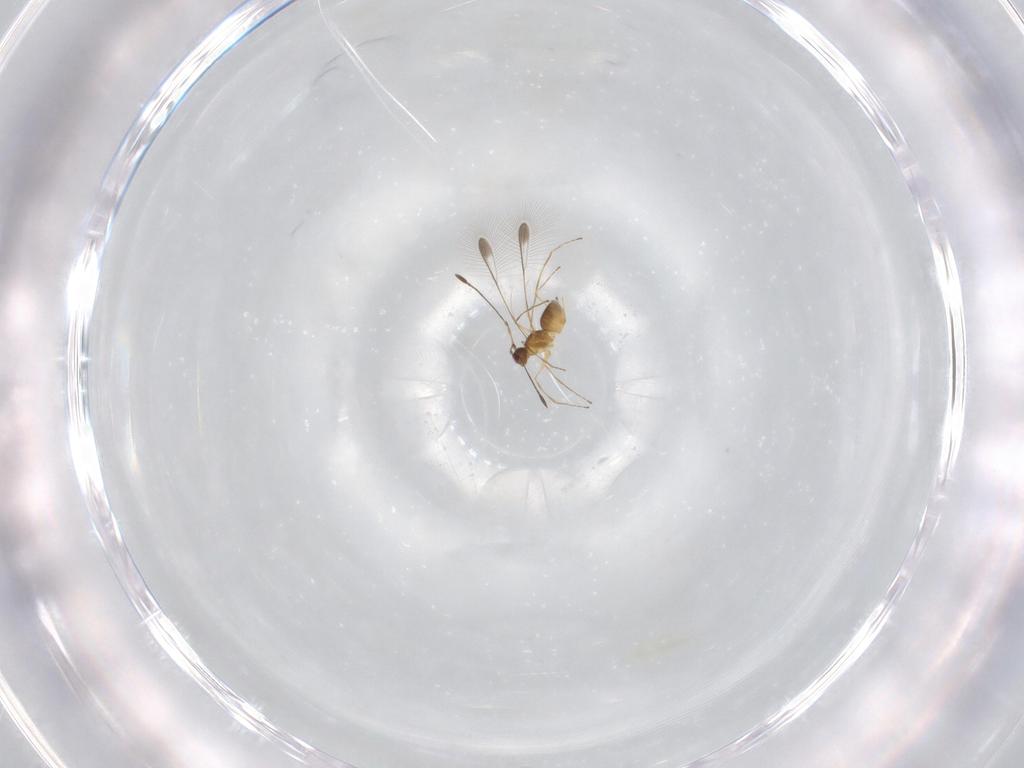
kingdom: Animalia
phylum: Arthropoda
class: Insecta
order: Hymenoptera
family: Mymaridae
